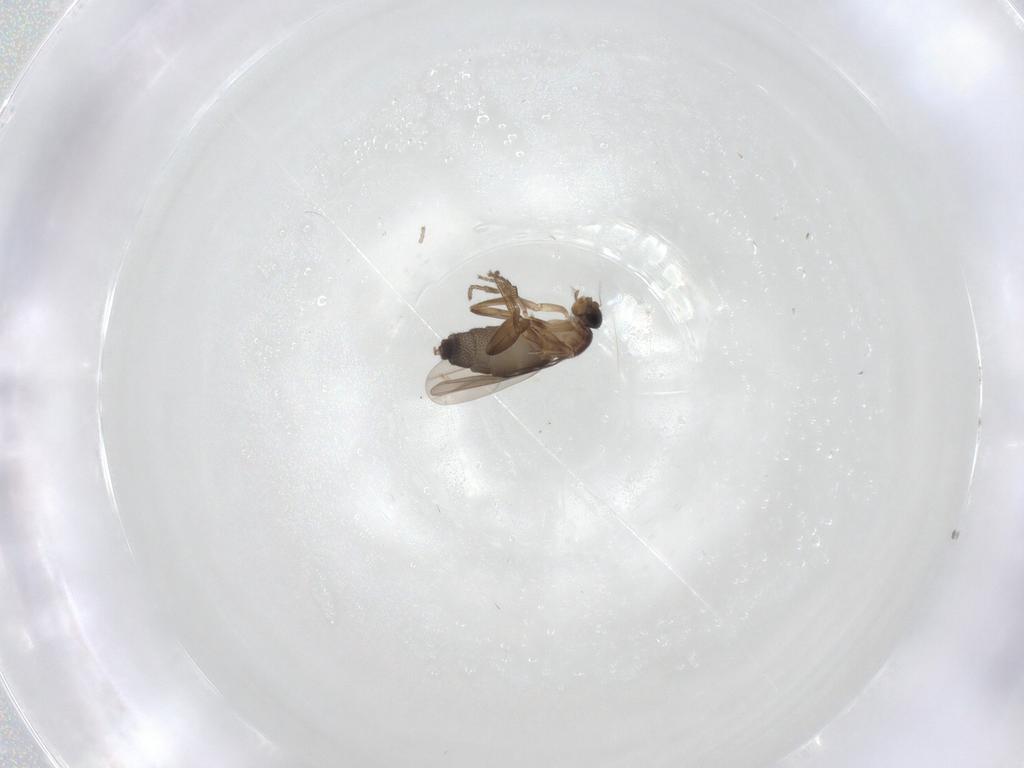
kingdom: Animalia
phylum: Arthropoda
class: Insecta
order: Diptera
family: Phoridae
